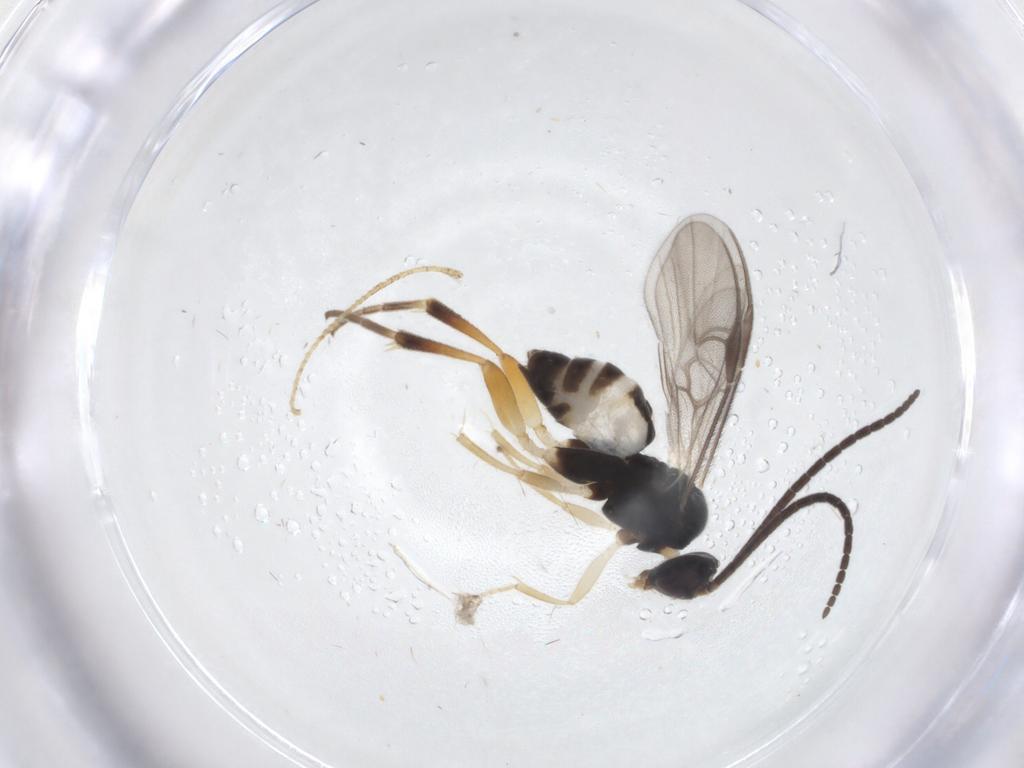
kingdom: Animalia
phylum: Arthropoda
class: Insecta
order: Hymenoptera
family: Braconidae
